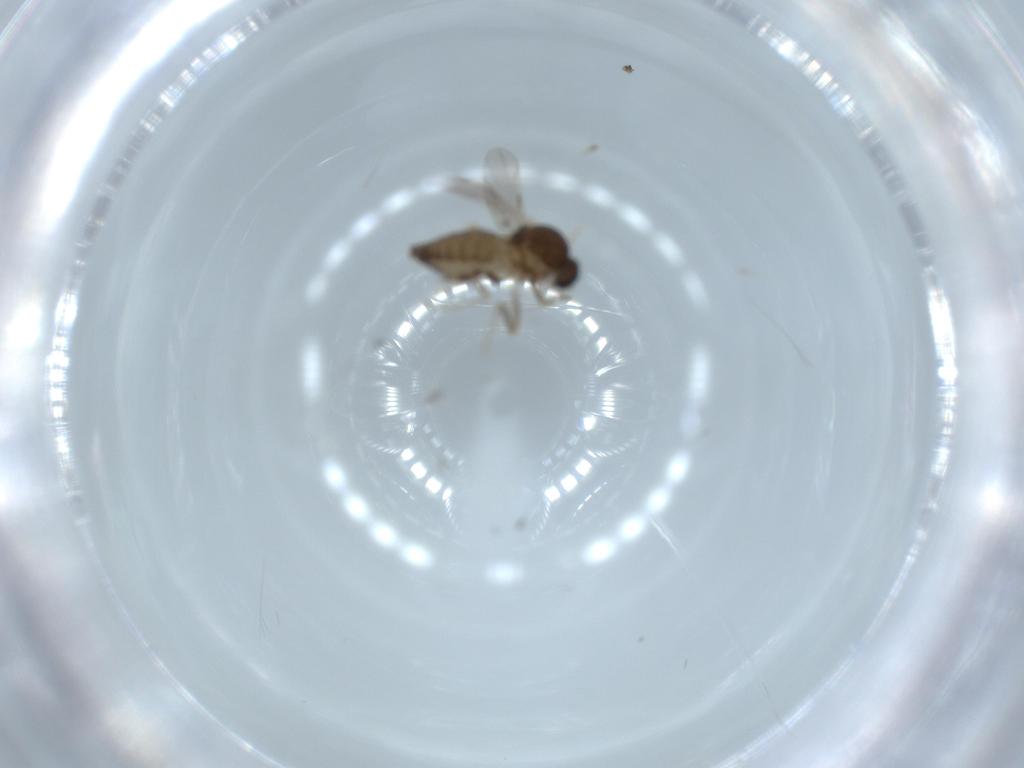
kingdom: Animalia
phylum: Arthropoda
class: Insecta
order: Diptera
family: Ceratopogonidae
